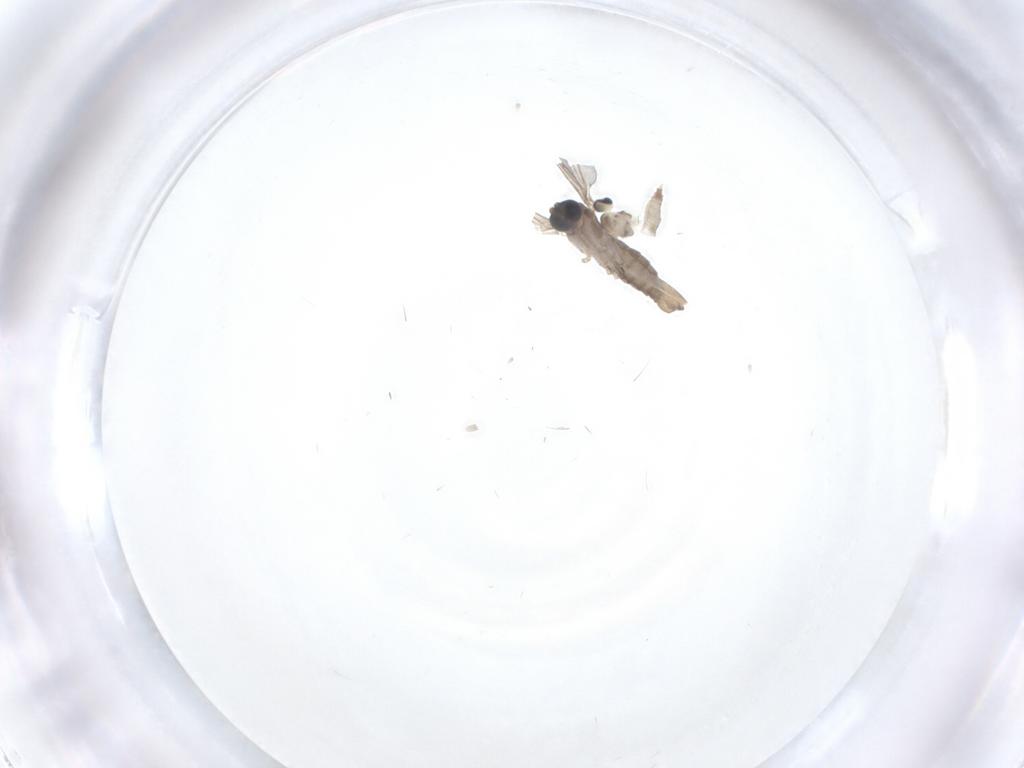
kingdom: Animalia
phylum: Arthropoda
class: Insecta
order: Diptera
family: Sciaridae
